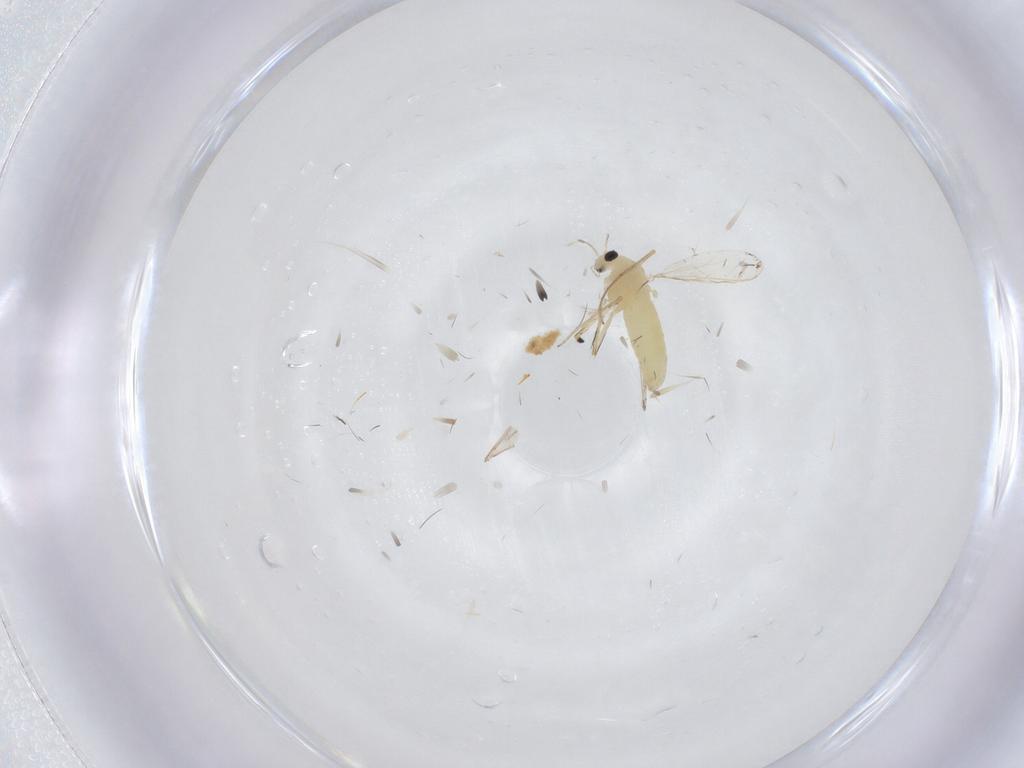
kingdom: Animalia
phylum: Arthropoda
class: Insecta
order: Diptera
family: Chironomidae
